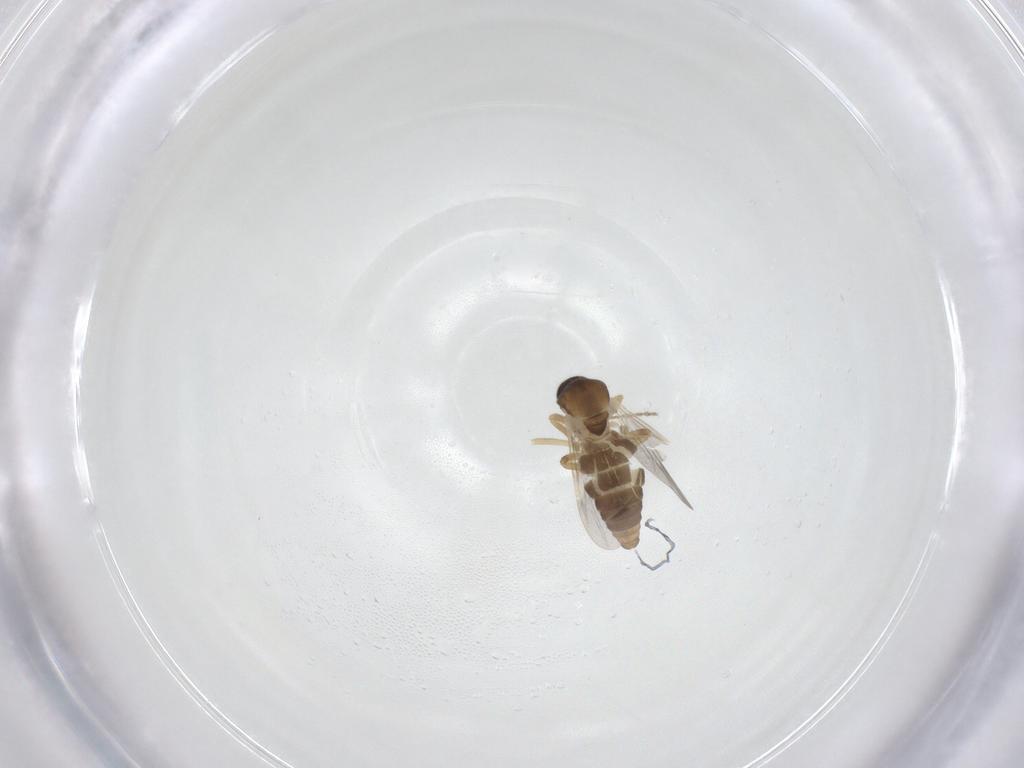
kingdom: Animalia
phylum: Arthropoda
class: Insecta
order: Diptera
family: Ceratopogonidae
